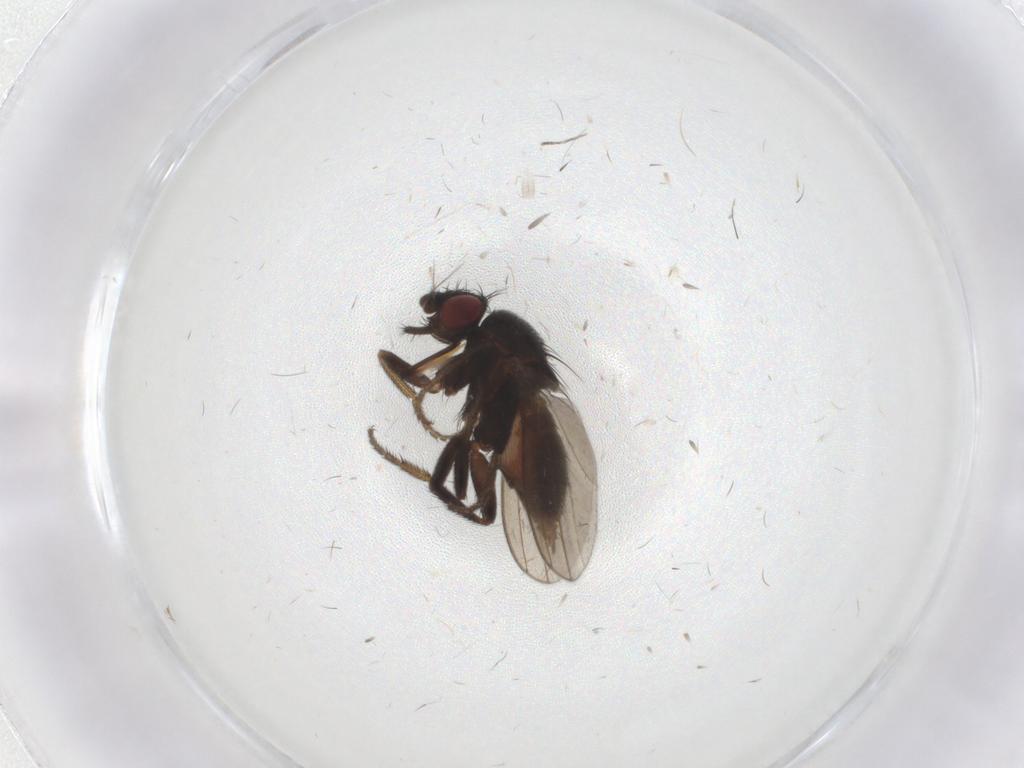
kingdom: Animalia
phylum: Arthropoda
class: Insecta
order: Diptera
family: Milichiidae
